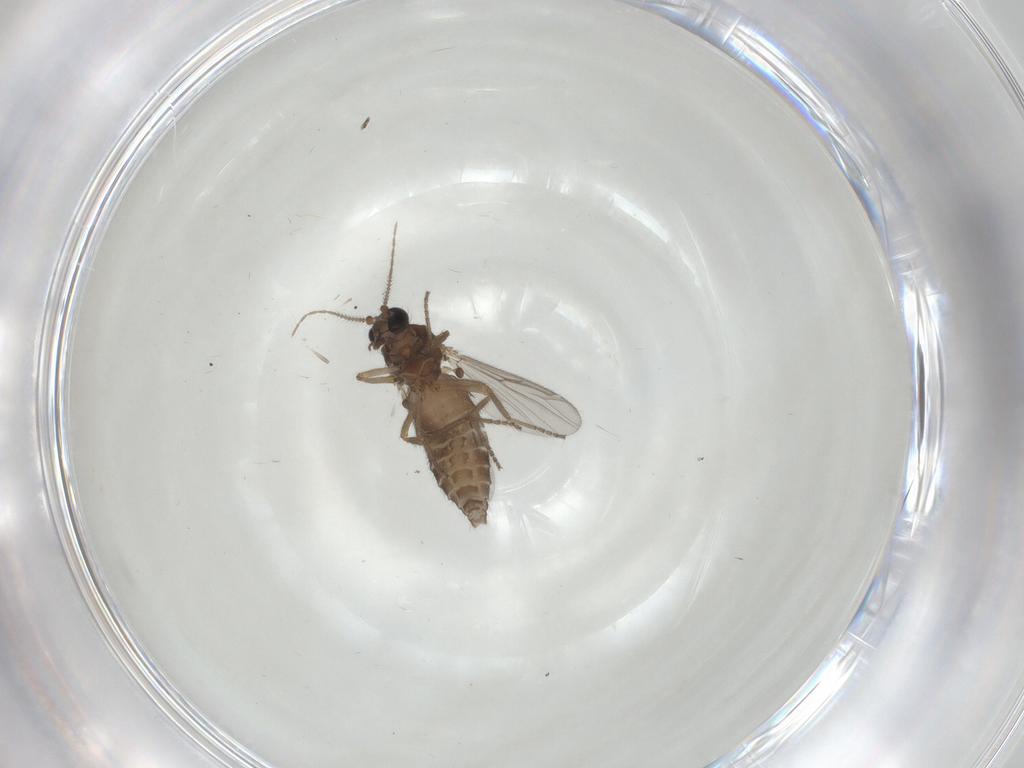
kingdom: Animalia
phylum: Arthropoda
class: Insecta
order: Diptera
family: Ceratopogonidae
